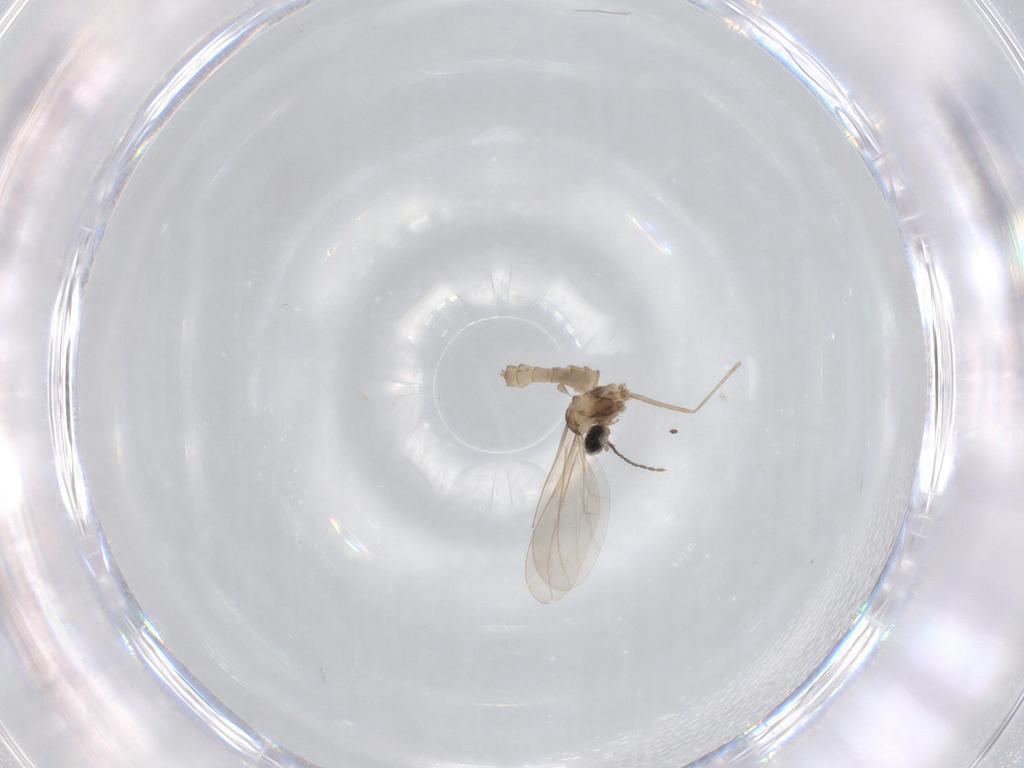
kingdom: Animalia
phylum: Arthropoda
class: Insecta
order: Diptera
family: Cecidomyiidae
